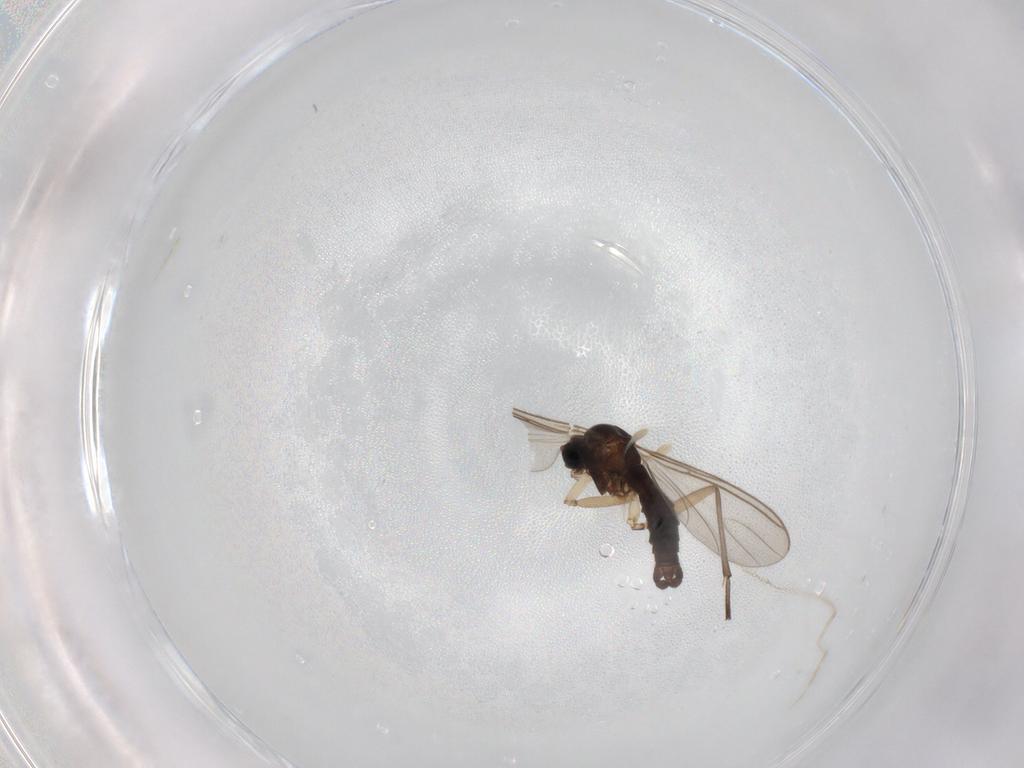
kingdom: Animalia
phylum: Arthropoda
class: Insecta
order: Diptera
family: Sciaridae
